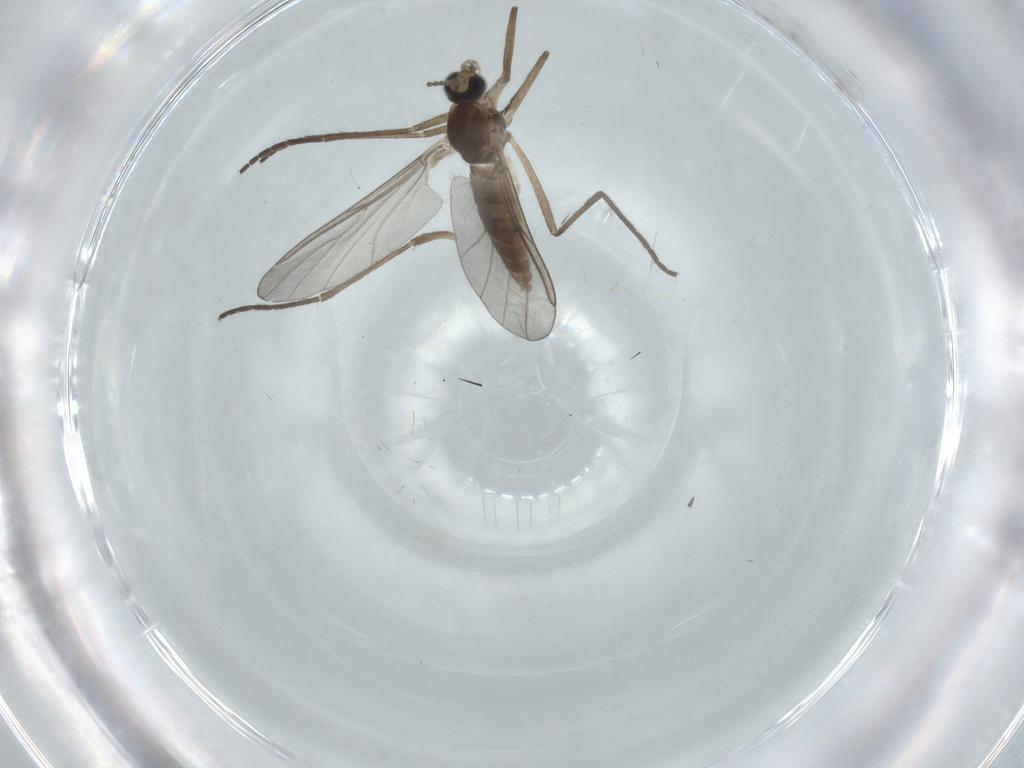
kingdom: Animalia
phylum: Arthropoda
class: Insecta
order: Diptera
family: Cecidomyiidae
